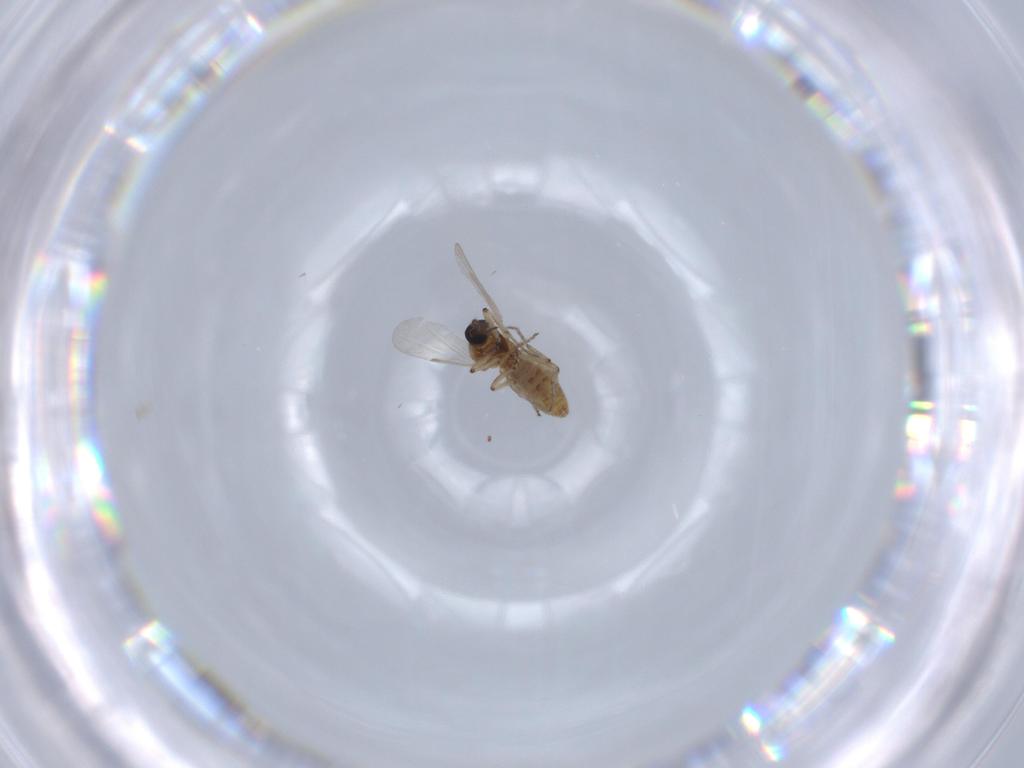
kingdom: Animalia
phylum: Arthropoda
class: Insecta
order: Diptera
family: Ceratopogonidae
